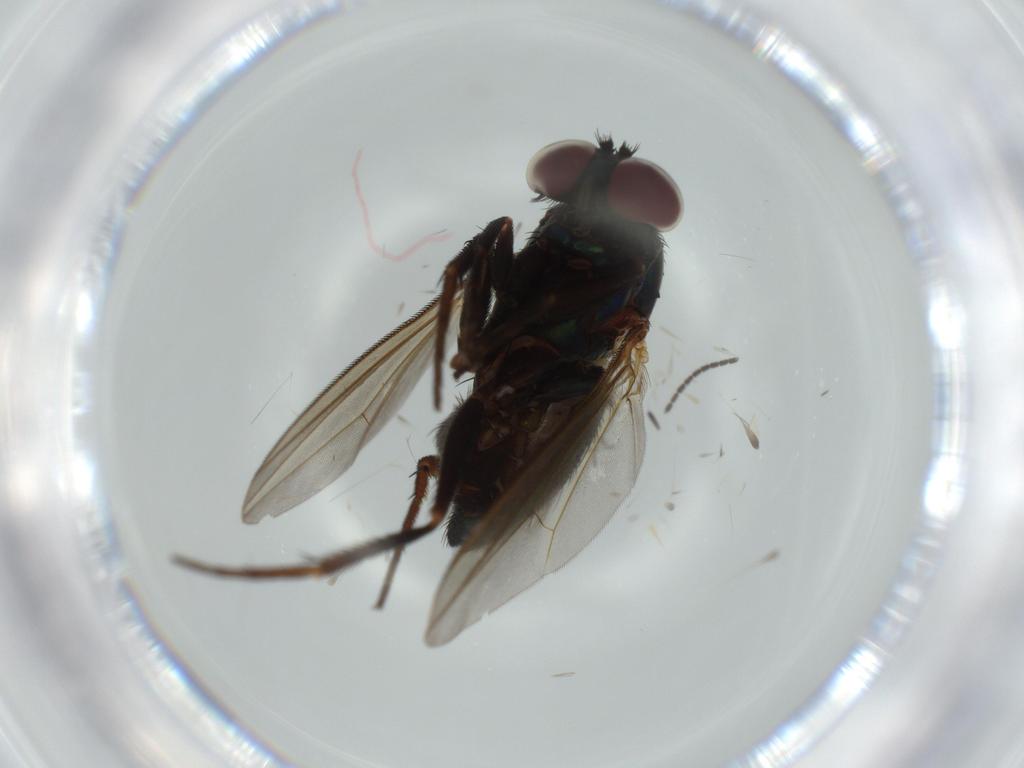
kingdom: Animalia
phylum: Arthropoda
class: Insecta
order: Diptera
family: Dolichopodidae
